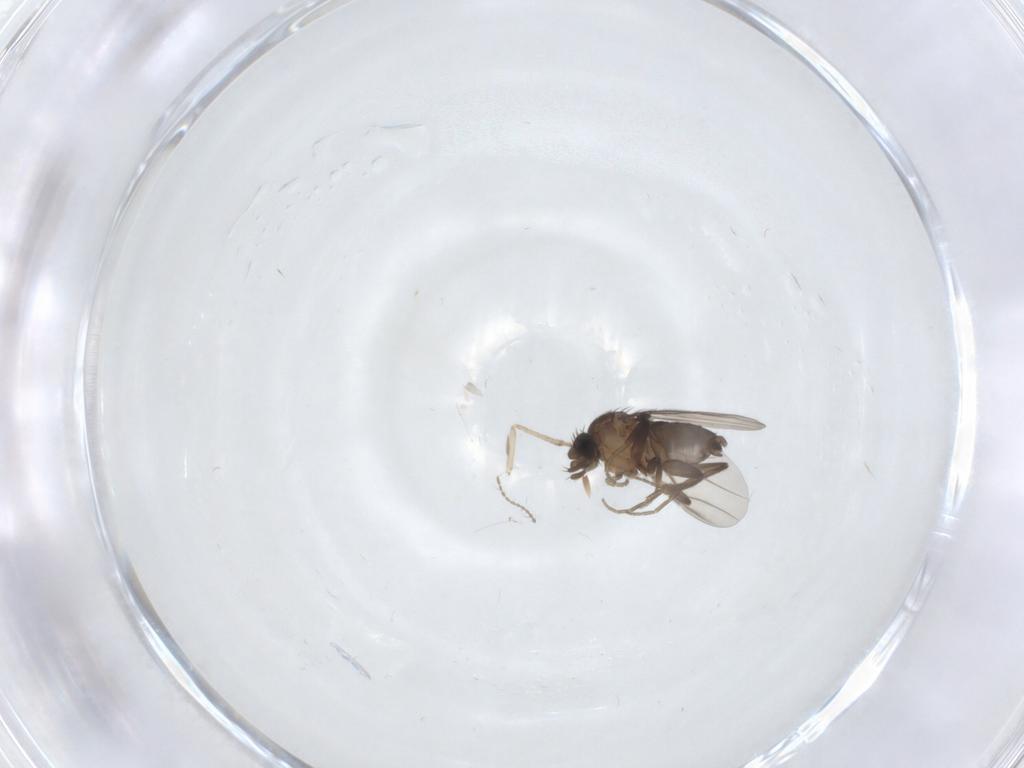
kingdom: Animalia
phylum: Arthropoda
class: Insecta
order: Diptera
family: Phoridae
